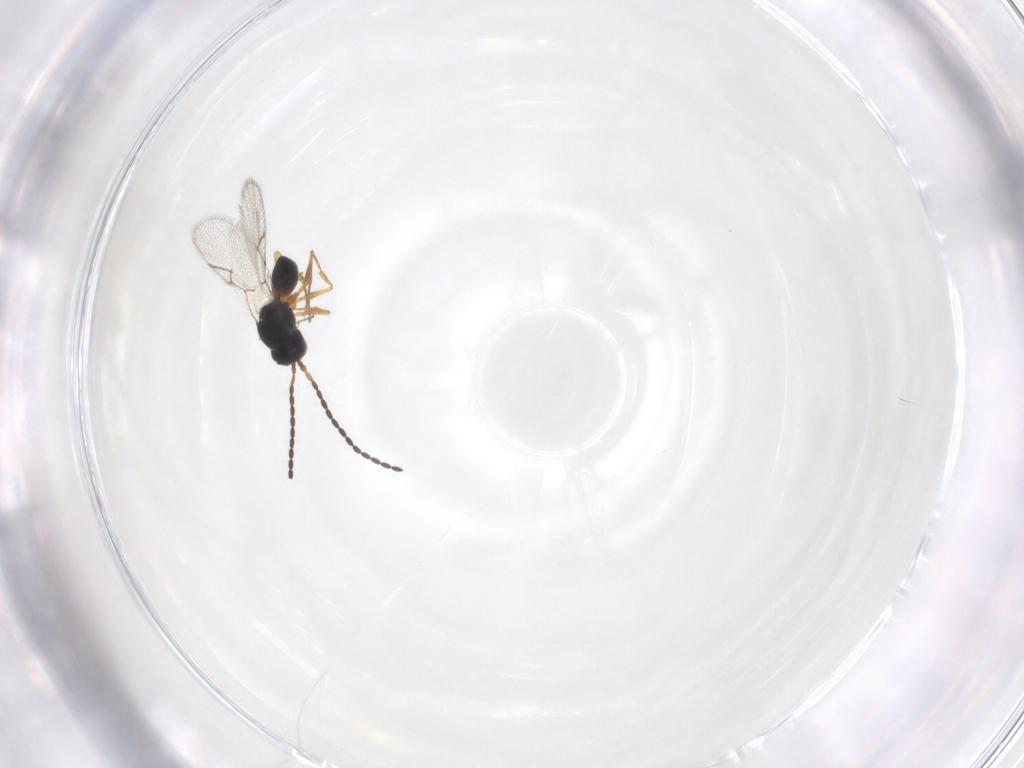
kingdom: Animalia
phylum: Arthropoda
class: Insecta
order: Hymenoptera
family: Figitidae
